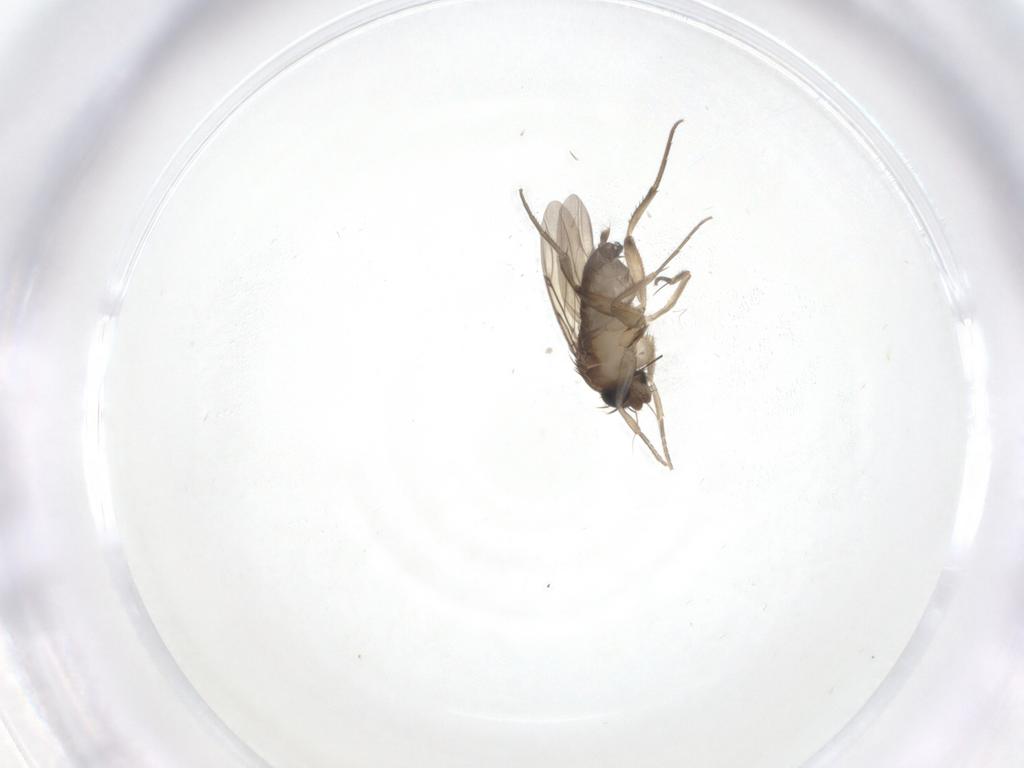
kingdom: Animalia
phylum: Arthropoda
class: Insecta
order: Diptera
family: Phoridae
